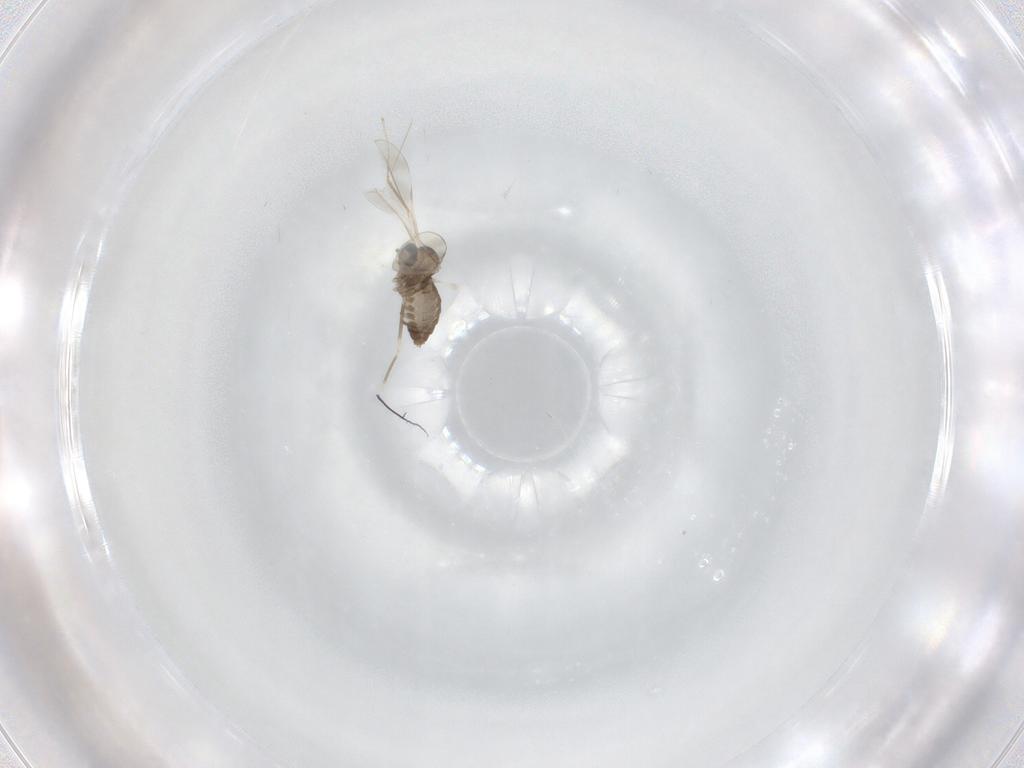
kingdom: Animalia
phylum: Arthropoda
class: Insecta
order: Diptera
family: Cecidomyiidae
